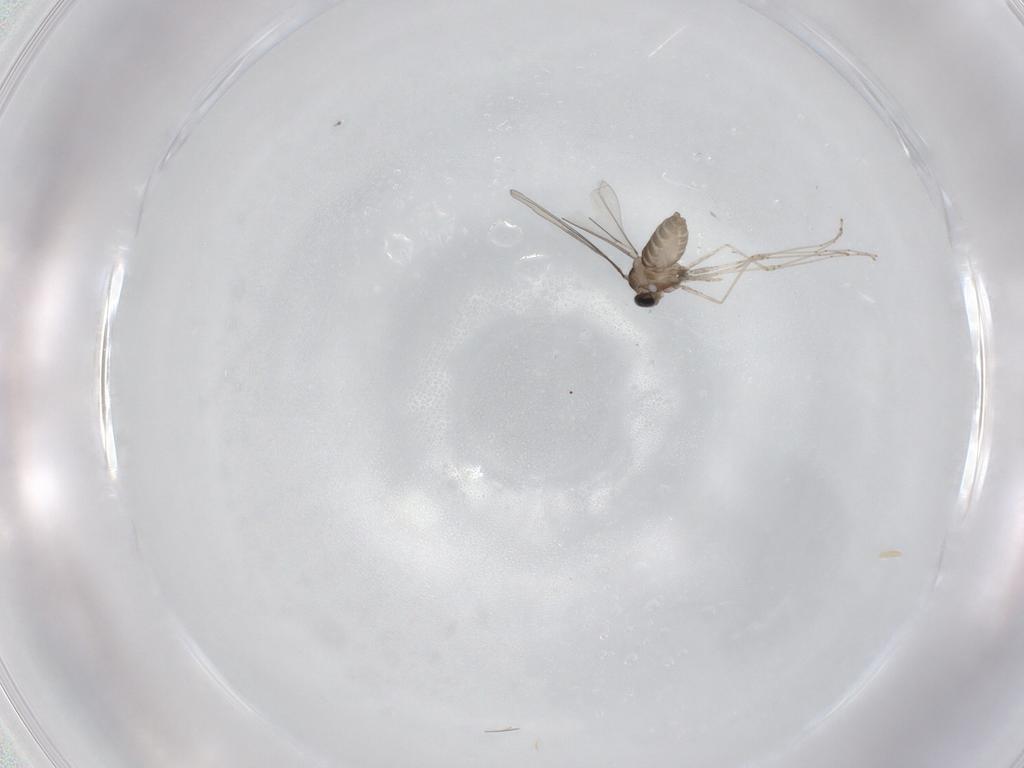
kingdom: Animalia
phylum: Arthropoda
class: Insecta
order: Diptera
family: Cecidomyiidae
